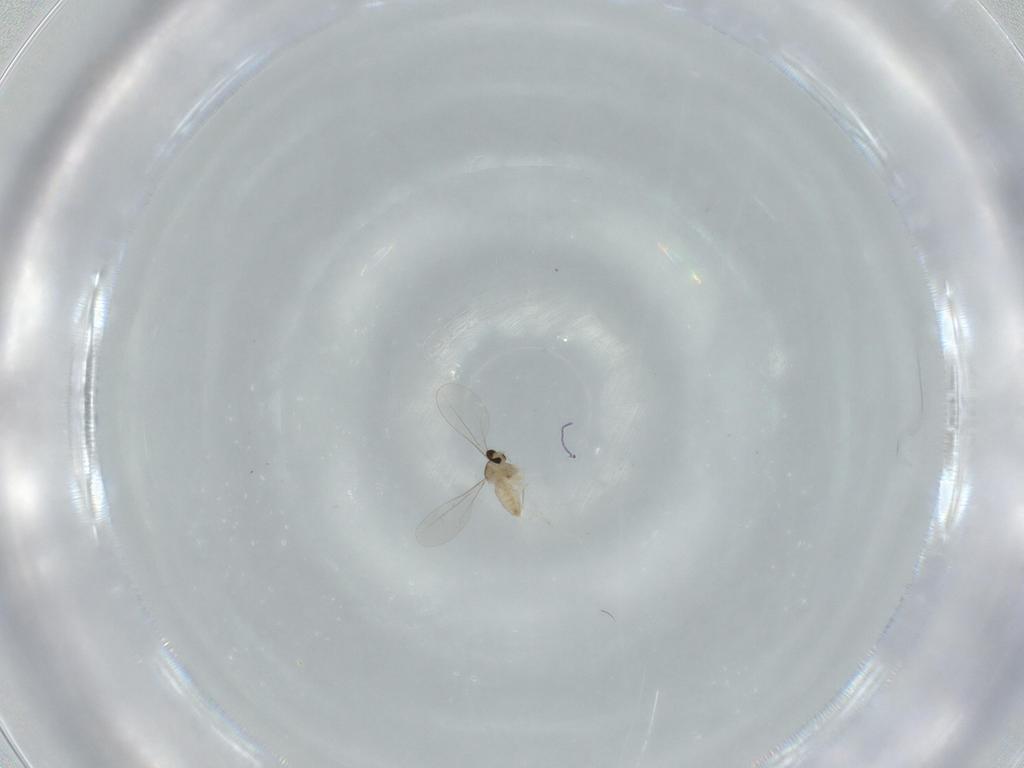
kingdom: Animalia
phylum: Arthropoda
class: Insecta
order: Diptera
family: Cecidomyiidae
